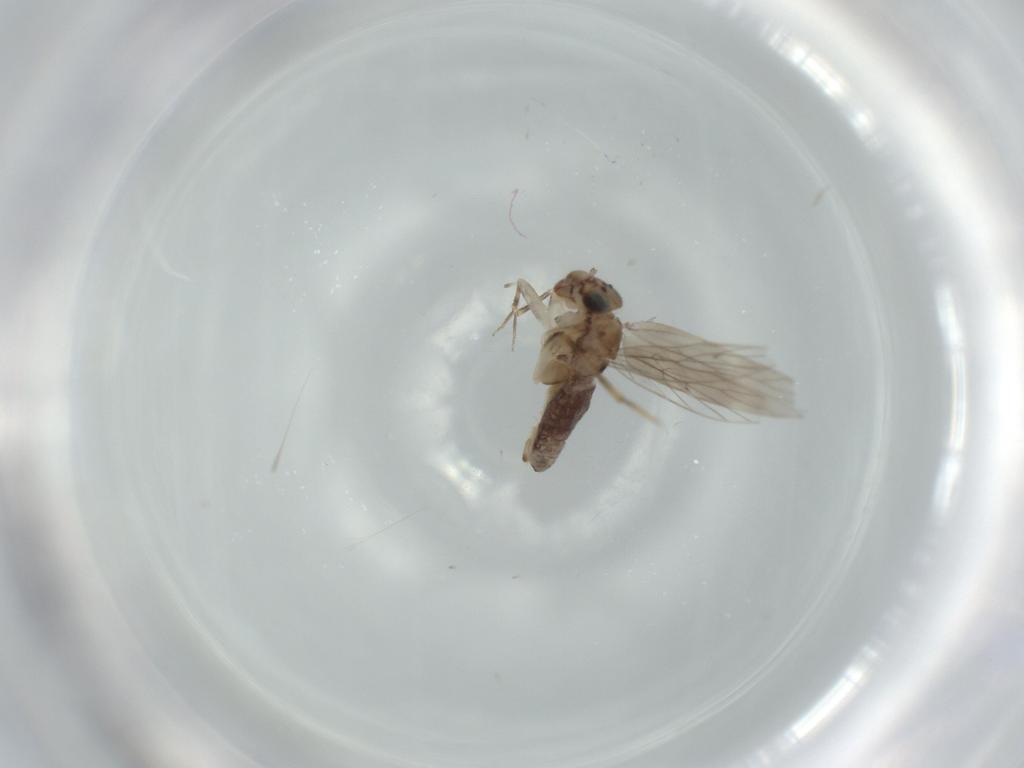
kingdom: Animalia
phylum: Arthropoda
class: Insecta
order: Psocodea
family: Lepidopsocidae
